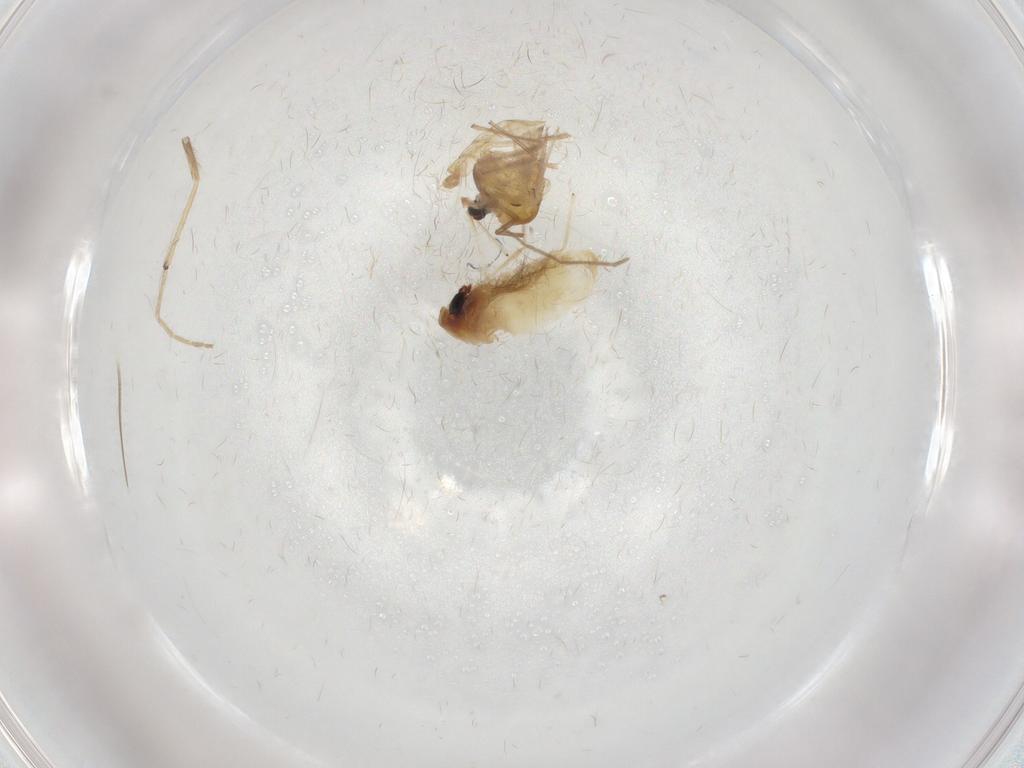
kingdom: Animalia
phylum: Arthropoda
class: Insecta
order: Diptera
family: Chironomidae
